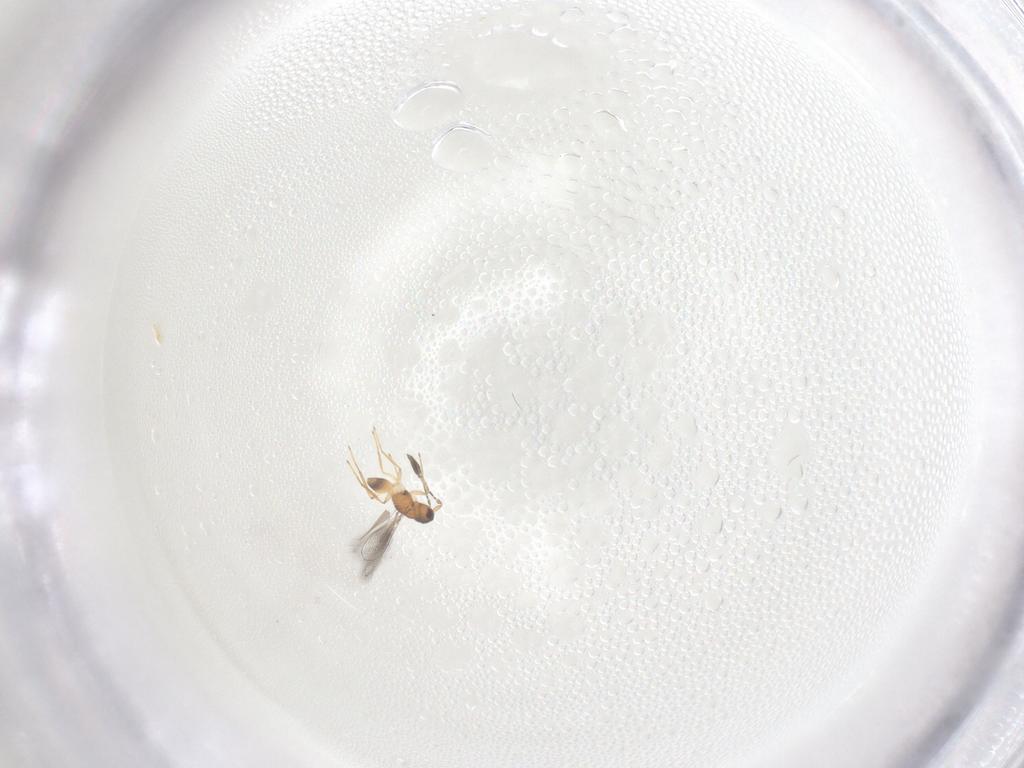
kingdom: Animalia
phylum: Arthropoda
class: Insecta
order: Hymenoptera
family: Mymaridae
